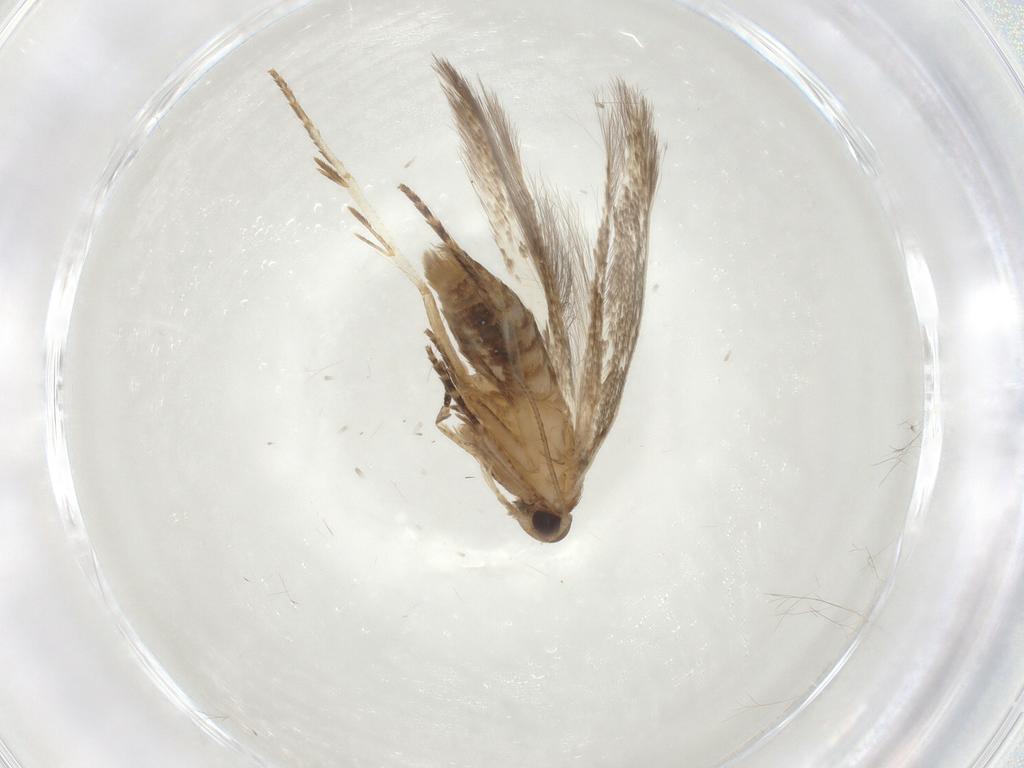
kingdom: Animalia
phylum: Arthropoda
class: Insecta
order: Lepidoptera
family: Cosmopterigidae
